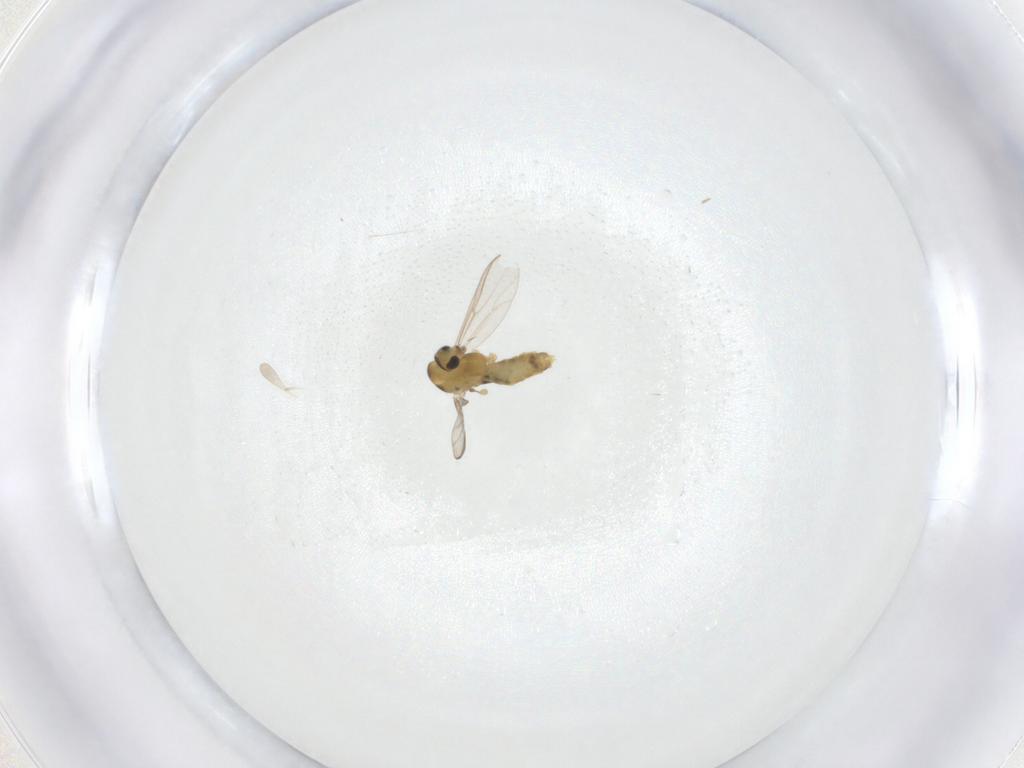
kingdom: Animalia
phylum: Arthropoda
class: Insecta
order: Diptera
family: Chironomidae
